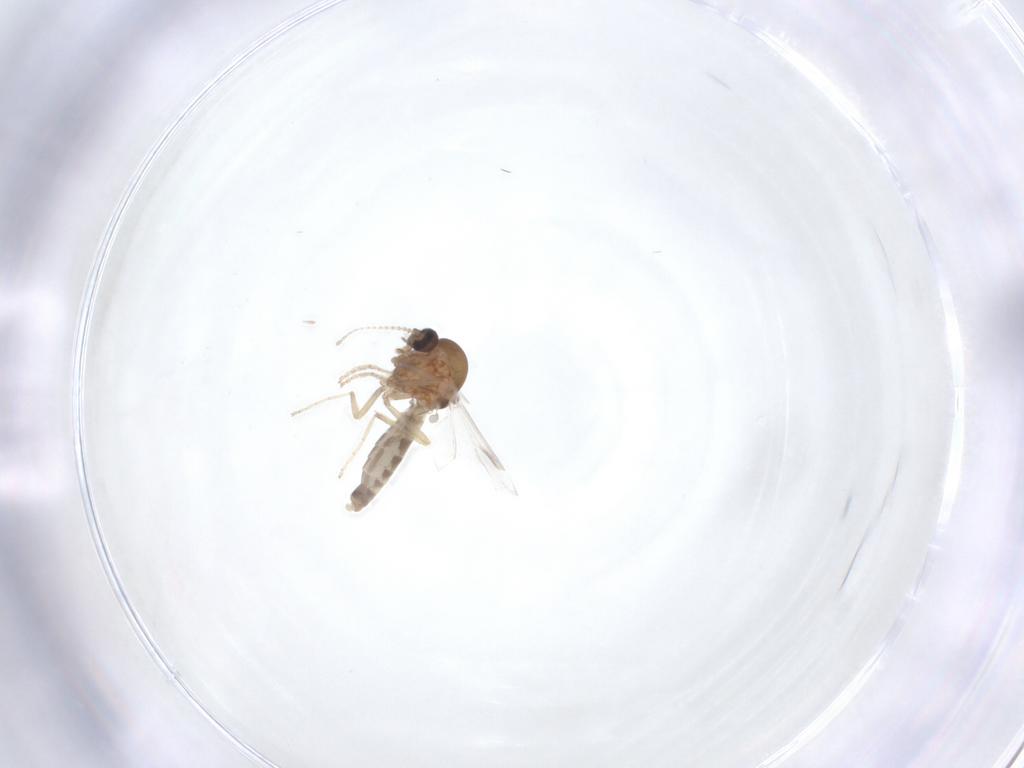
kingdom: Animalia
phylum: Arthropoda
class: Insecta
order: Diptera
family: Ceratopogonidae
